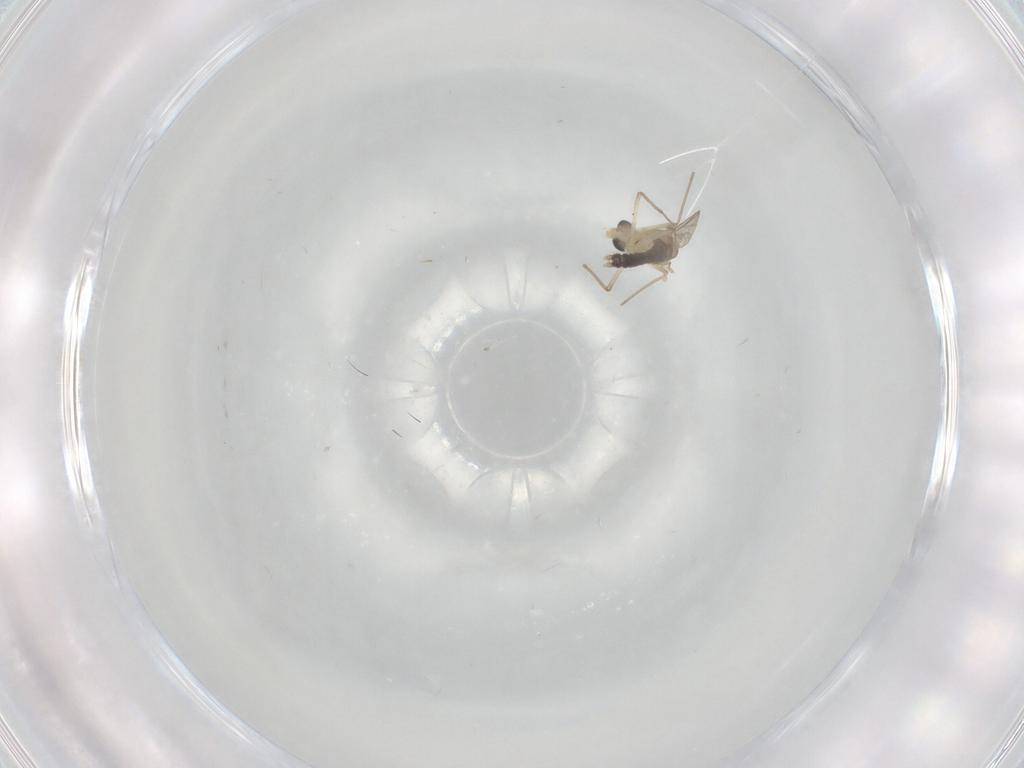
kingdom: Animalia
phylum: Arthropoda
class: Insecta
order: Diptera
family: Chironomidae
